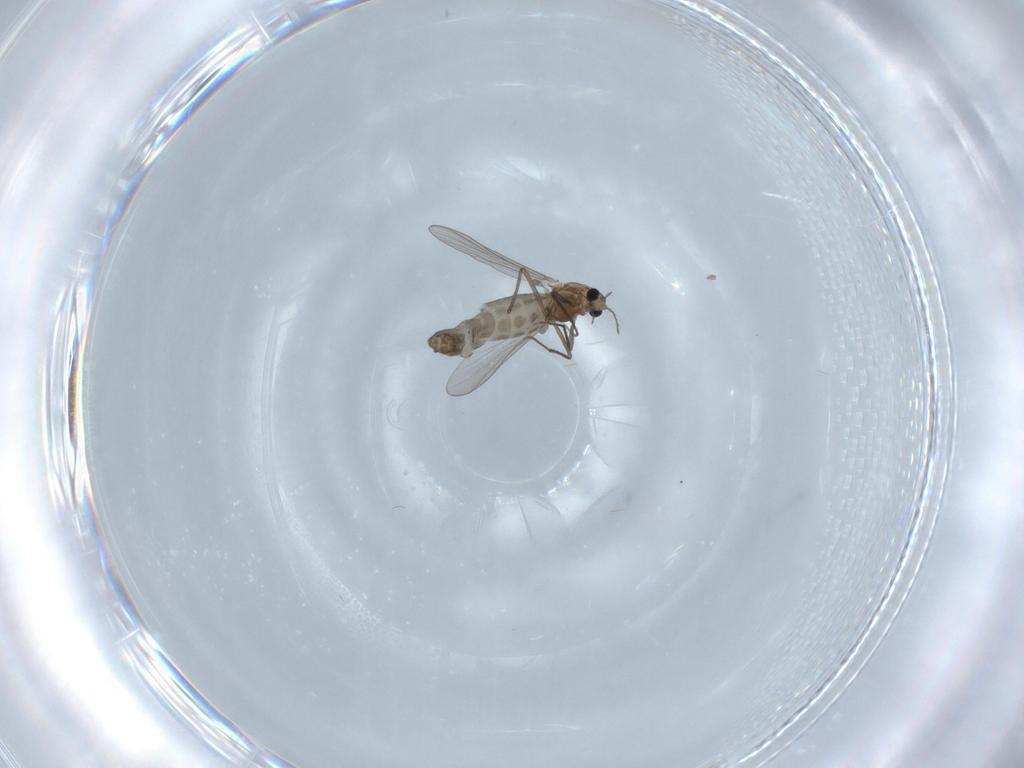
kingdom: Animalia
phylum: Arthropoda
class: Insecta
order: Diptera
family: Chironomidae
